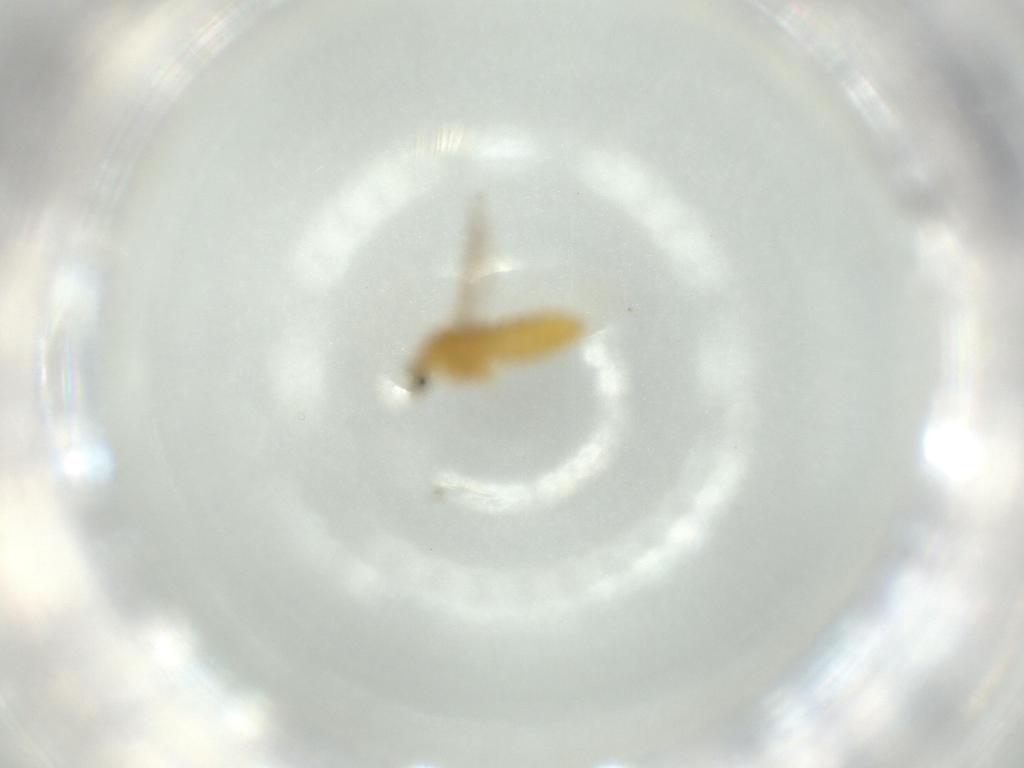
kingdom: Animalia
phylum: Arthropoda
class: Insecta
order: Diptera
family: Chironomidae
